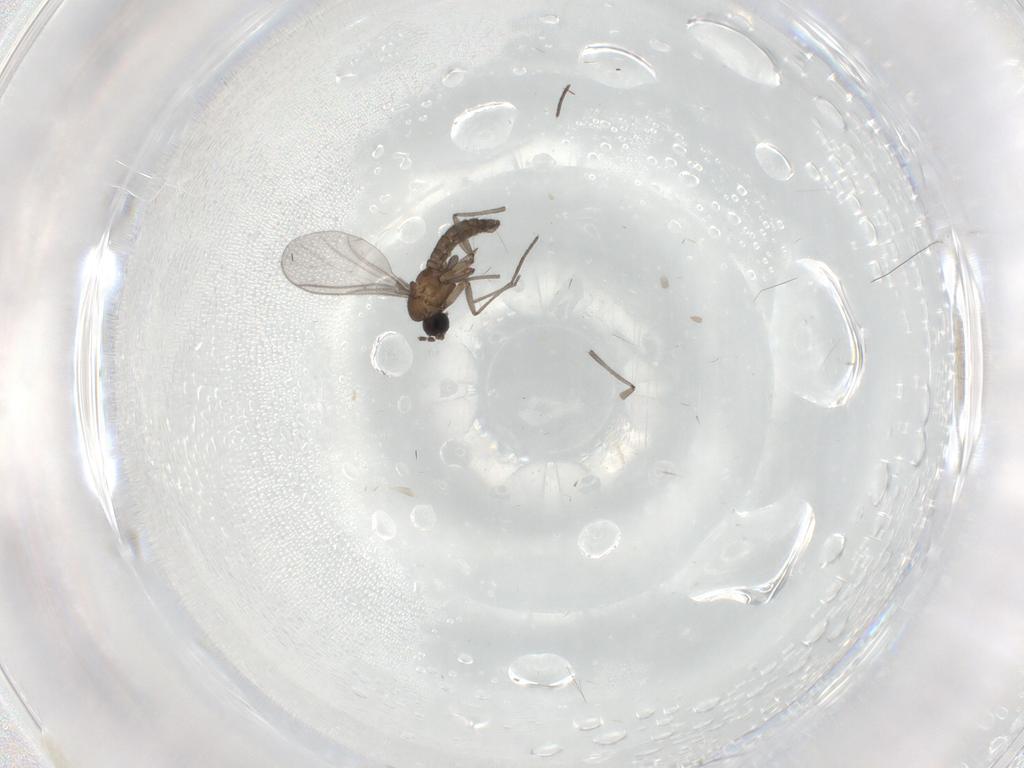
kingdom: Animalia
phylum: Arthropoda
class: Insecta
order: Diptera
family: Sciaridae
